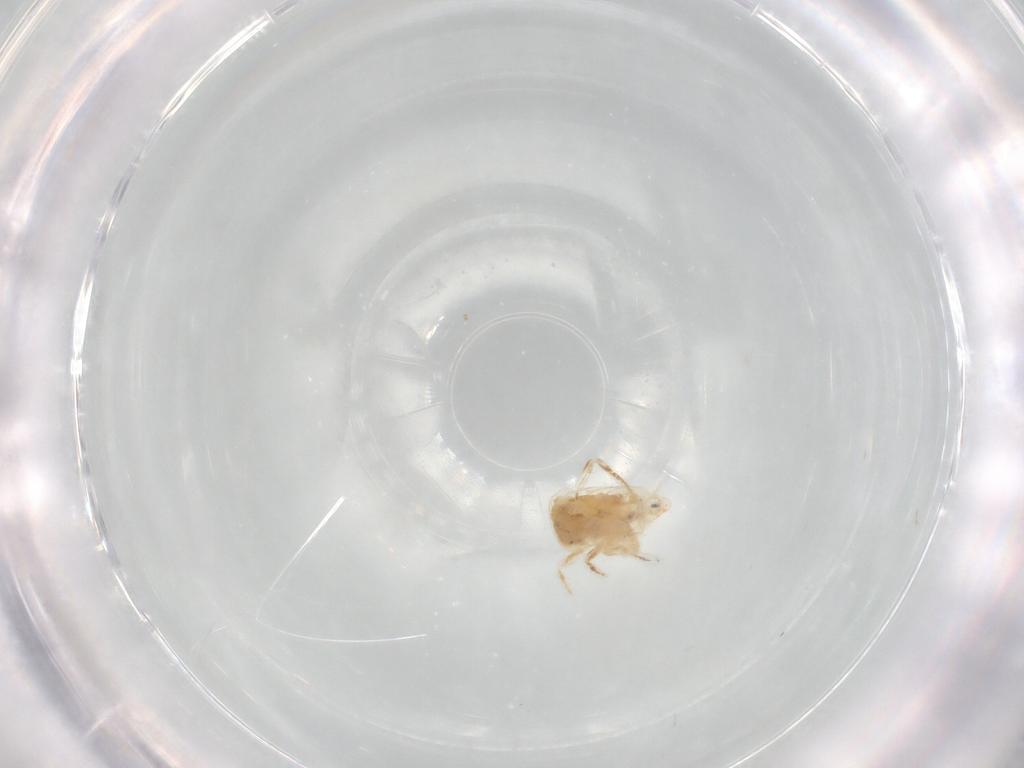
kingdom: Animalia
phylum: Arthropoda
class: Collembola
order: Entomobryomorpha
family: Entomobryidae
